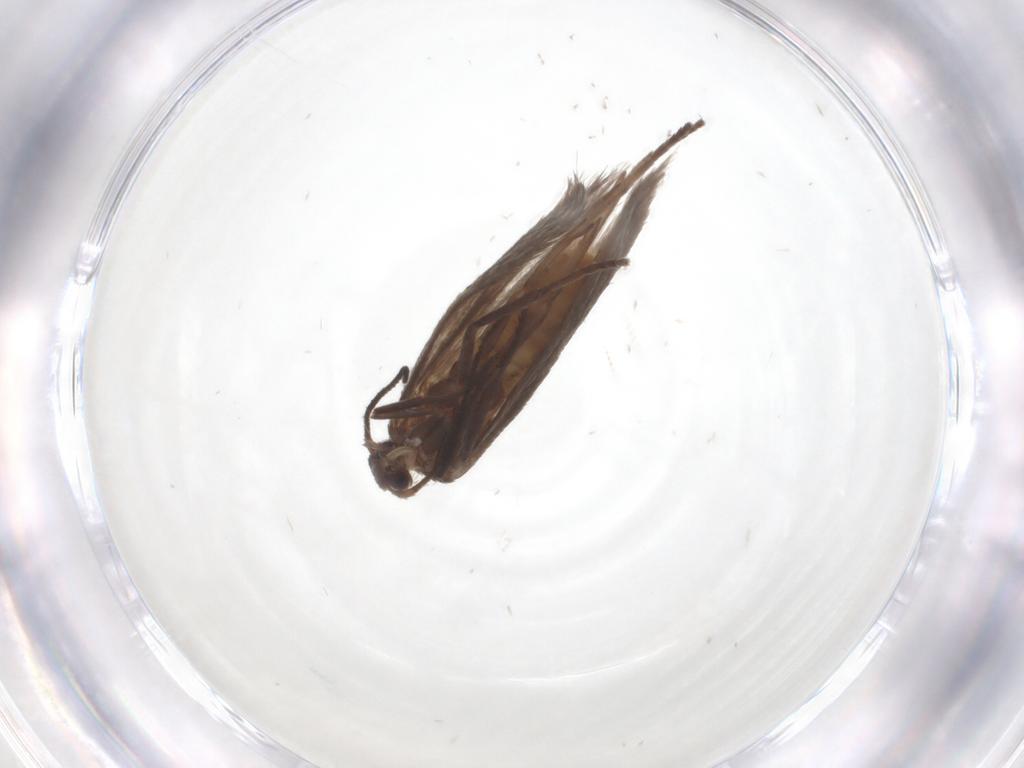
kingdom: Animalia
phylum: Arthropoda
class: Insecta
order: Lepidoptera
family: Limacodidae
